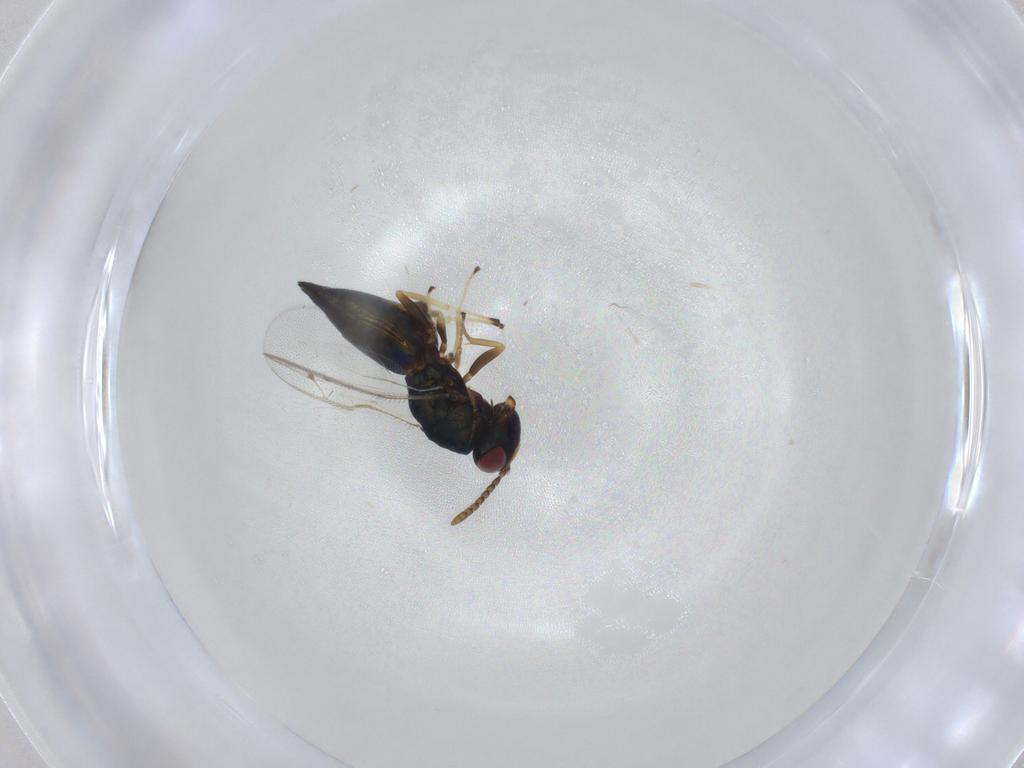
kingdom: Animalia
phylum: Arthropoda
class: Insecta
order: Hymenoptera
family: Pteromalidae
